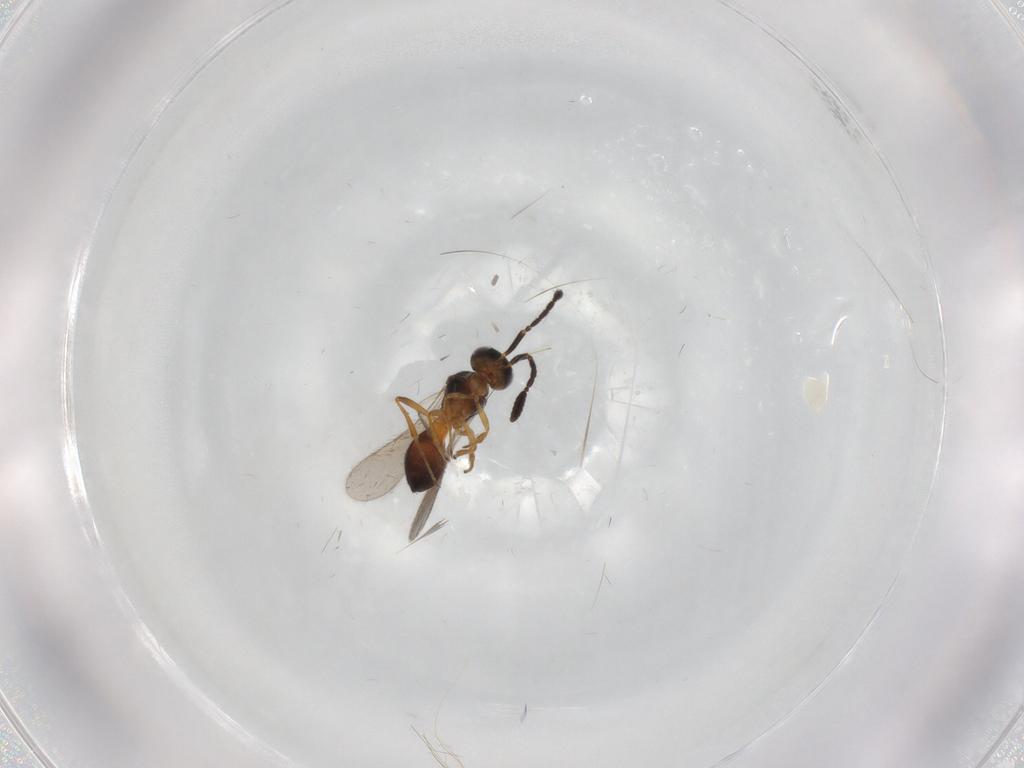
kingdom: Animalia
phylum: Arthropoda
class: Insecta
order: Hymenoptera
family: Scelionidae
